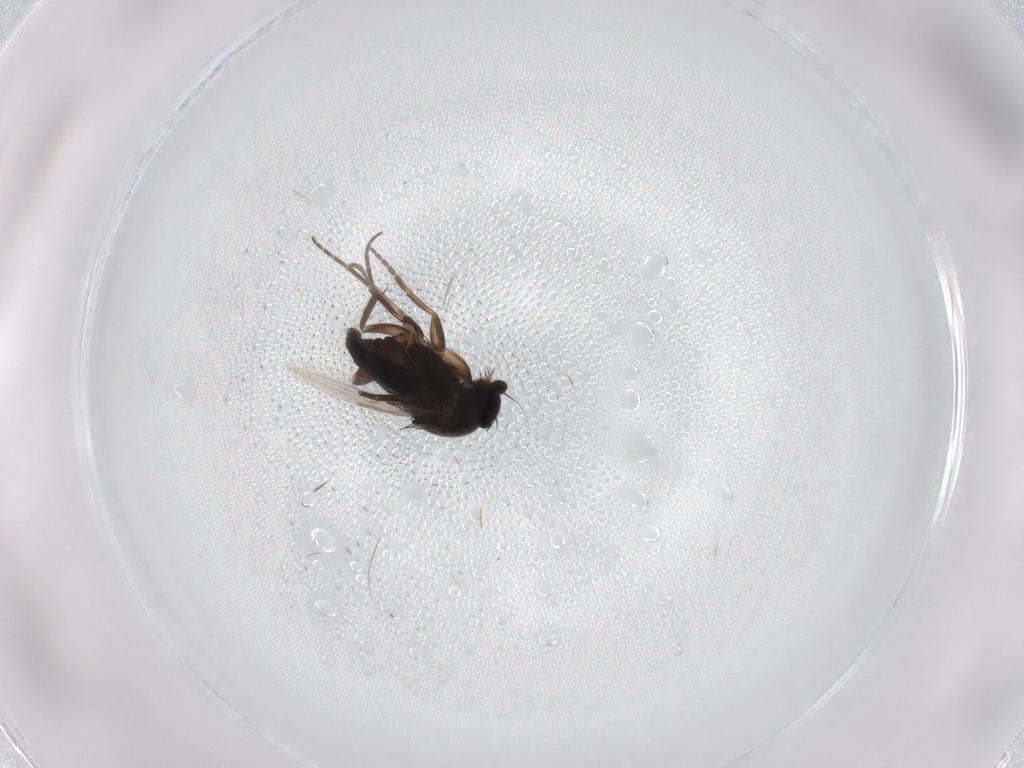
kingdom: Animalia
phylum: Arthropoda
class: Insecta
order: Diptera
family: Phoridae
